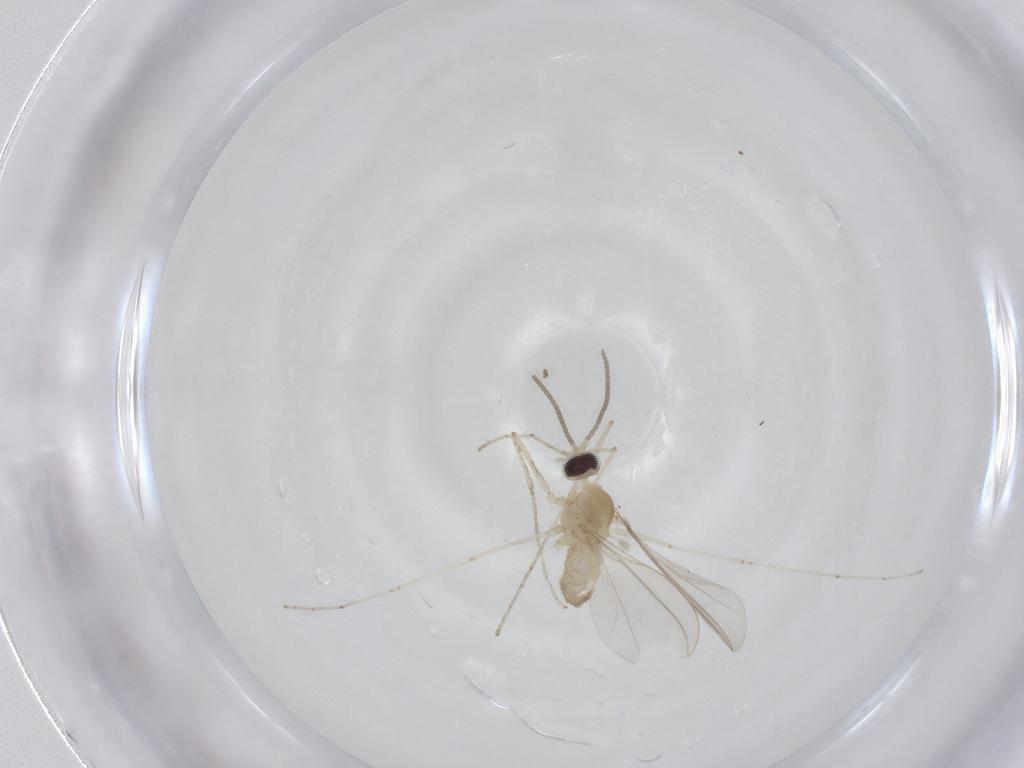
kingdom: Animalia
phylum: Arthropoda
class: Insecta
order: Diptera
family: Cecidomyiidae
